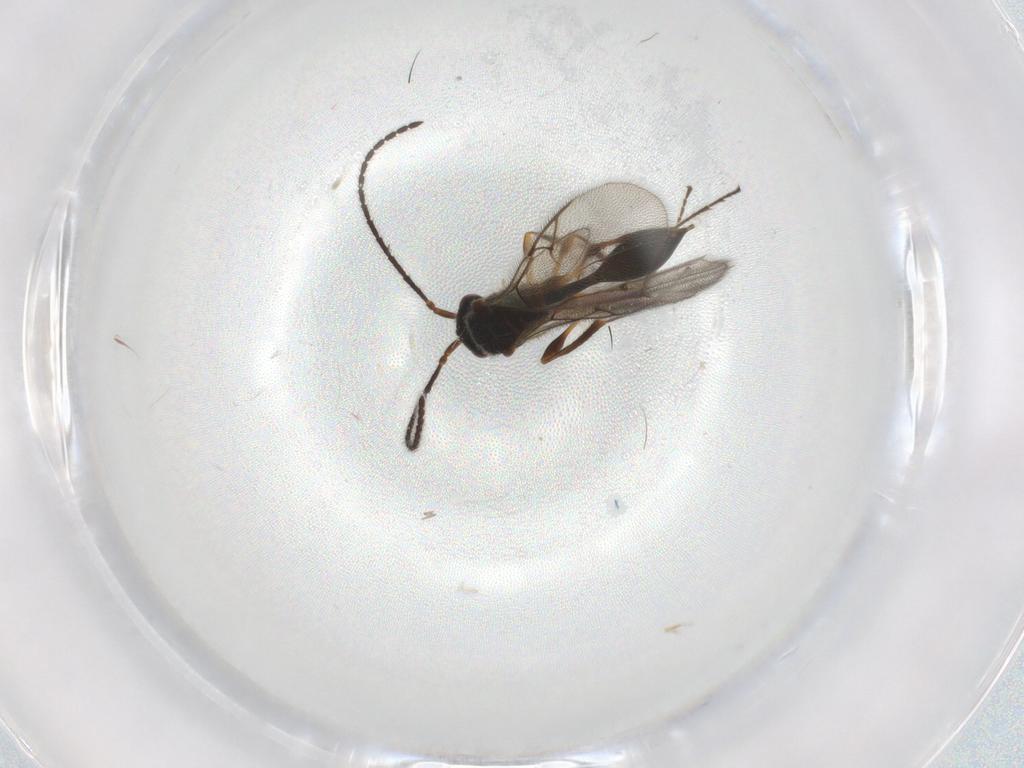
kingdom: Animalia
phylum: Arthropoda
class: Insecta
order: Hymenoptera
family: Diapriidae
